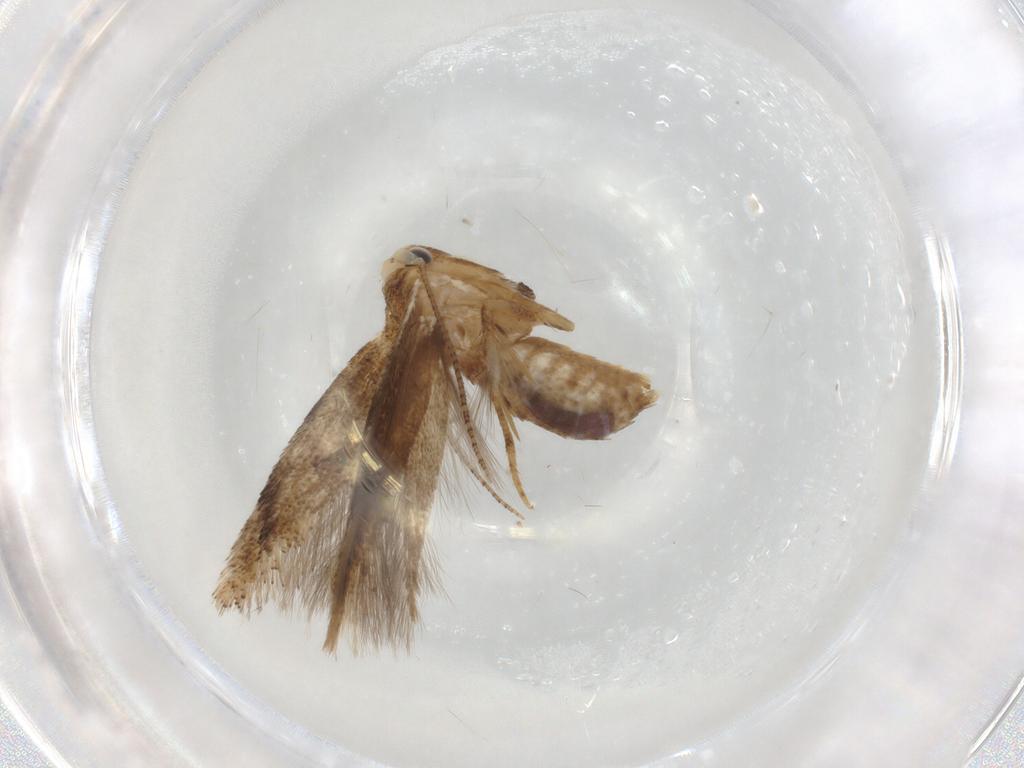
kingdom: Animalia
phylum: Arthropoda
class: Insecta
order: Lepidoptera
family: Bucculatricidae
